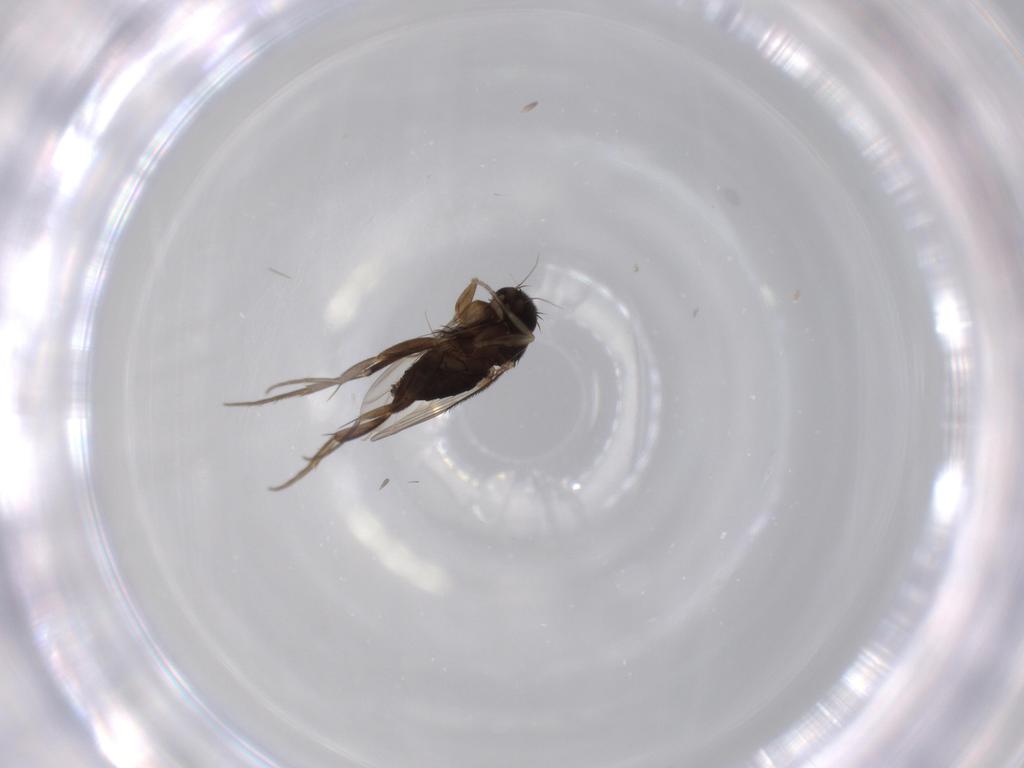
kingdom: Animalia
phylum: Arthropoda
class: Insecta
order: Diptera
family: Phoridae
